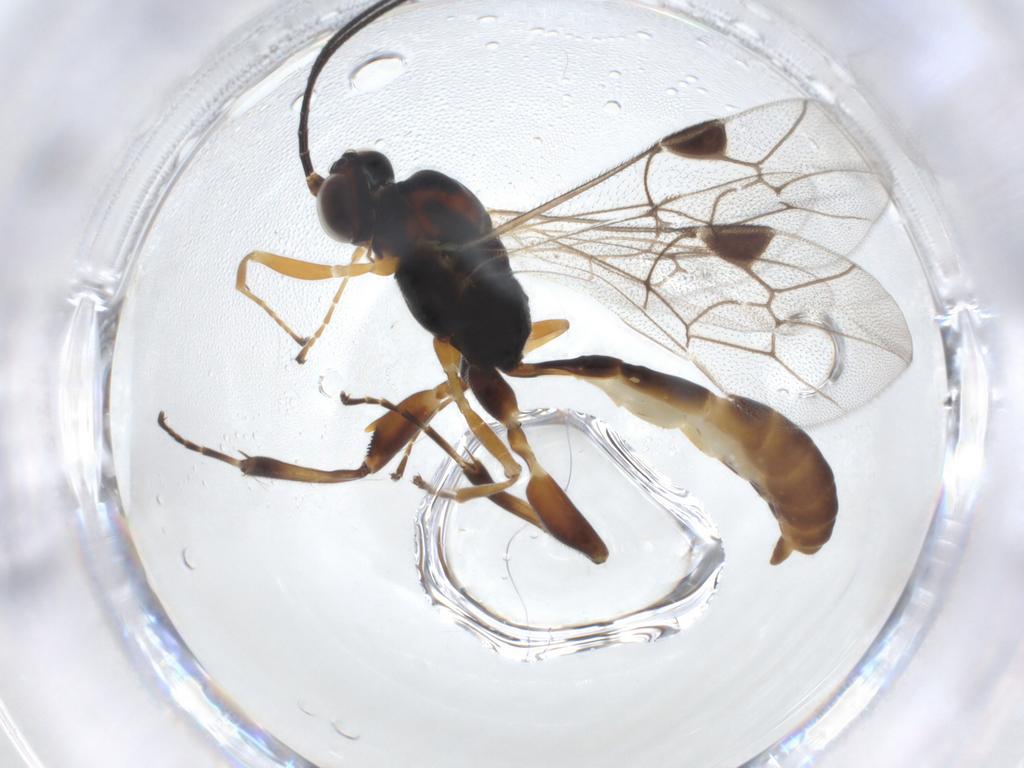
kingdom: Animalia
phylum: Arthropoda
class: Insecta
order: Hymenoptera
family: Ichneumonidae
